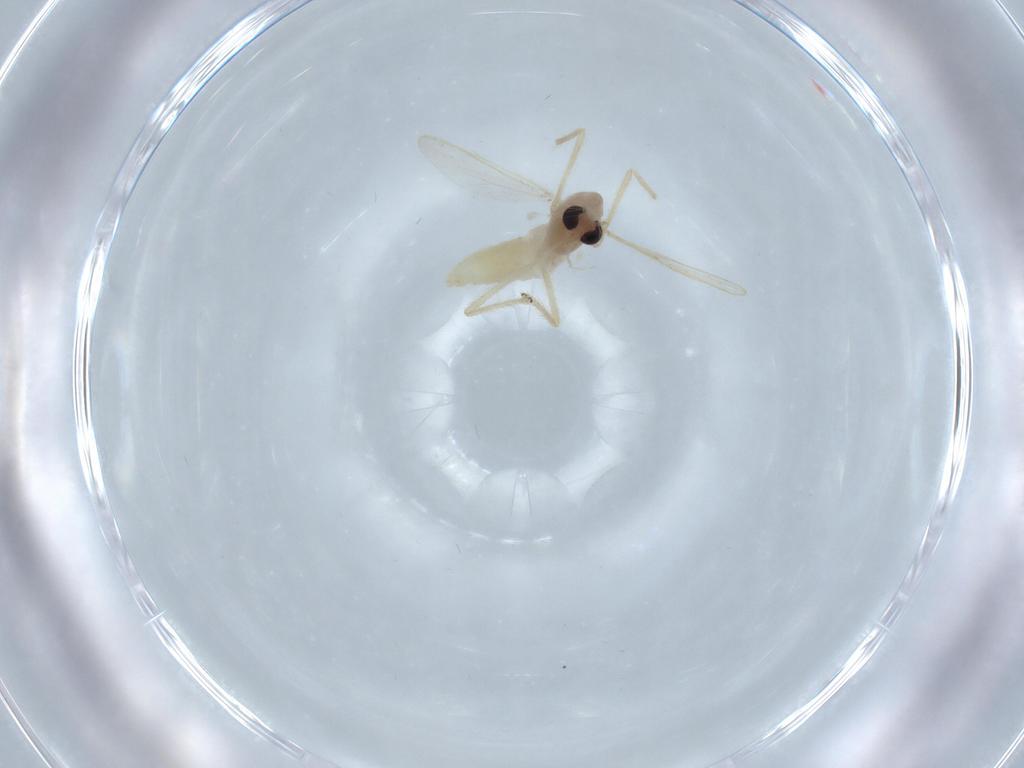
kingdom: Animalia
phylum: Arthropoda
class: Insecta
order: Diptera
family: Chironomidae
